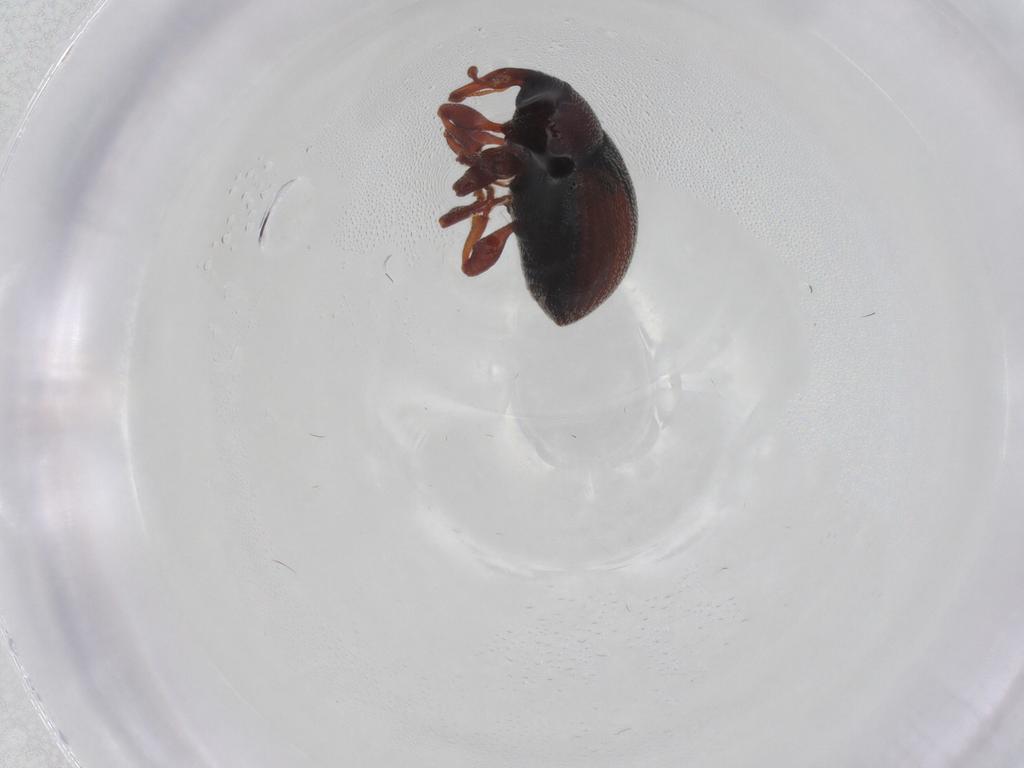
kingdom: Animalia
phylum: Arthropoda
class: Insecta
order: Coleoptera
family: Curculionidae
